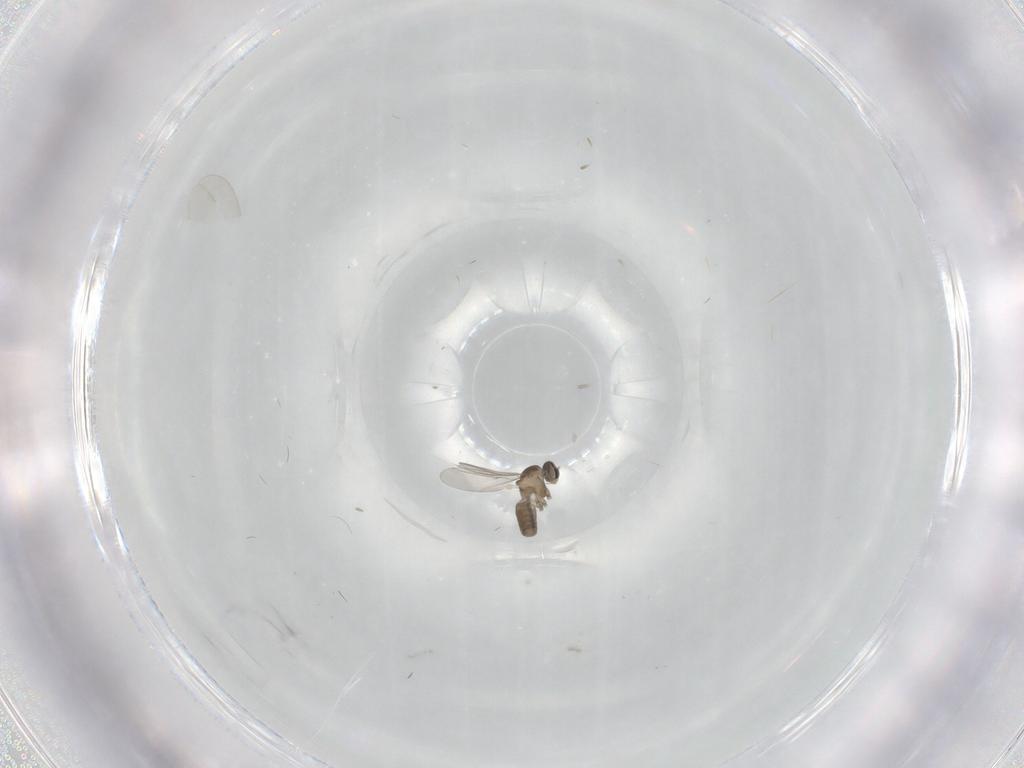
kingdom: Animalia
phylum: Arthropoda
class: Insecta
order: Diptera
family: Cecidomyiidae
